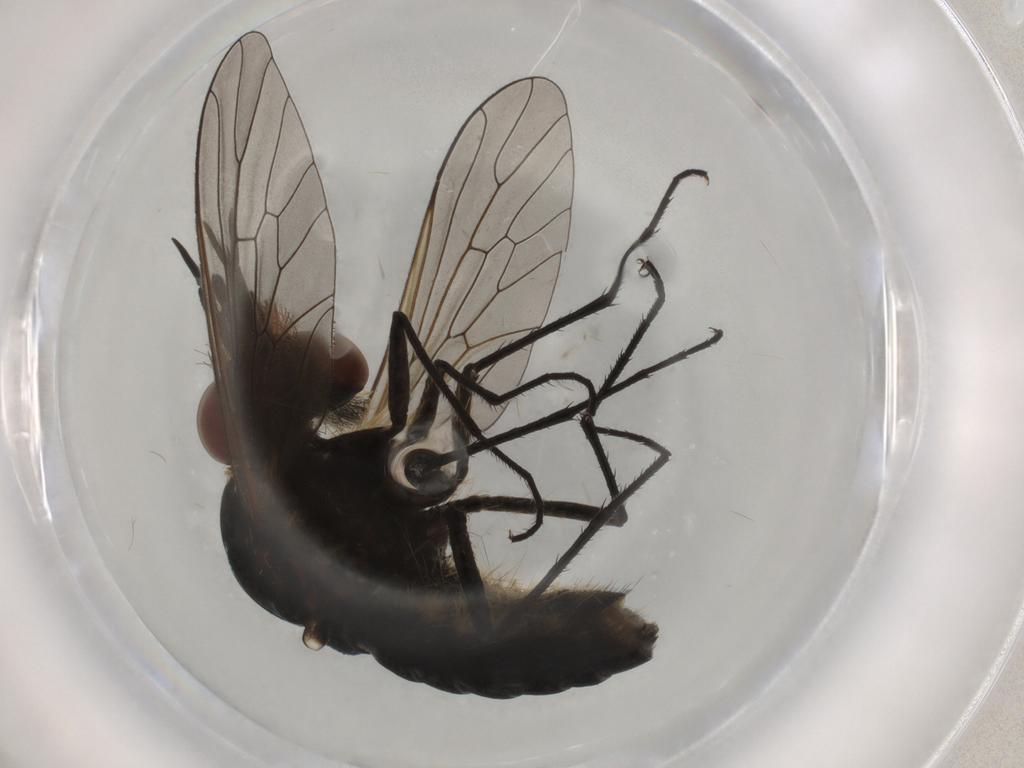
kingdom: Animalia
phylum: Arthropoda
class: Insecta
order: Diptera
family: Bombyliidae
